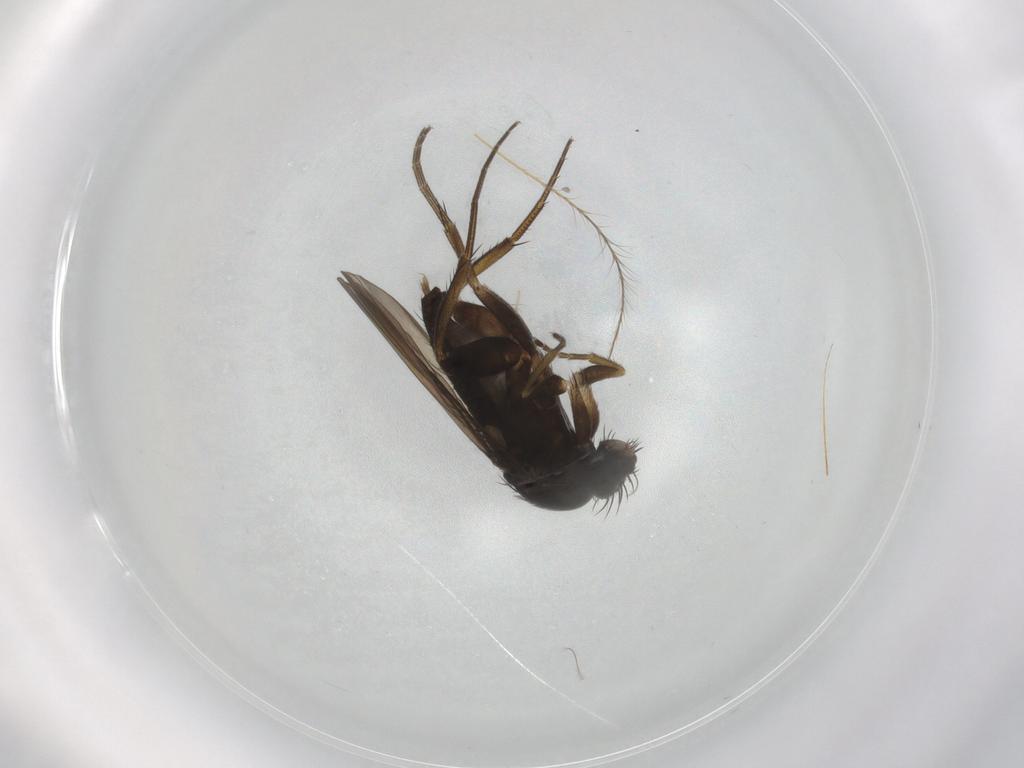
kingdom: Animalia
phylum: Arthropoda
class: Insecta
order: Diptera
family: Phoridae
